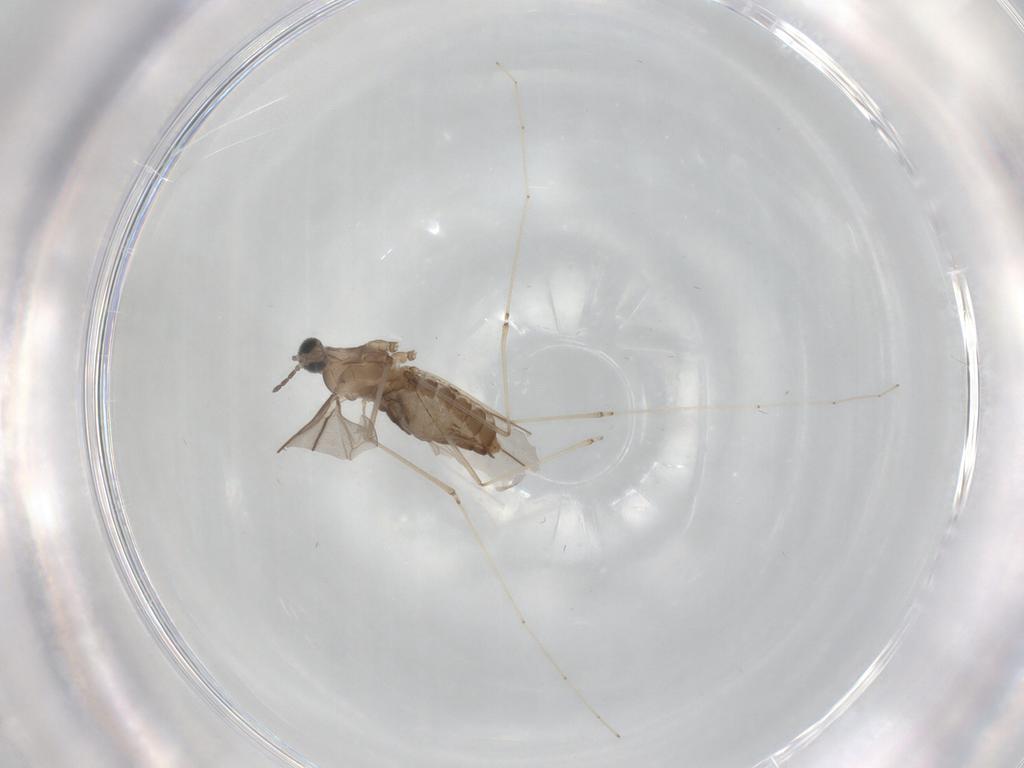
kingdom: Animalia
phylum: Arthropoda
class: Insecta
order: Diptera
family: Cecidomyiidae
